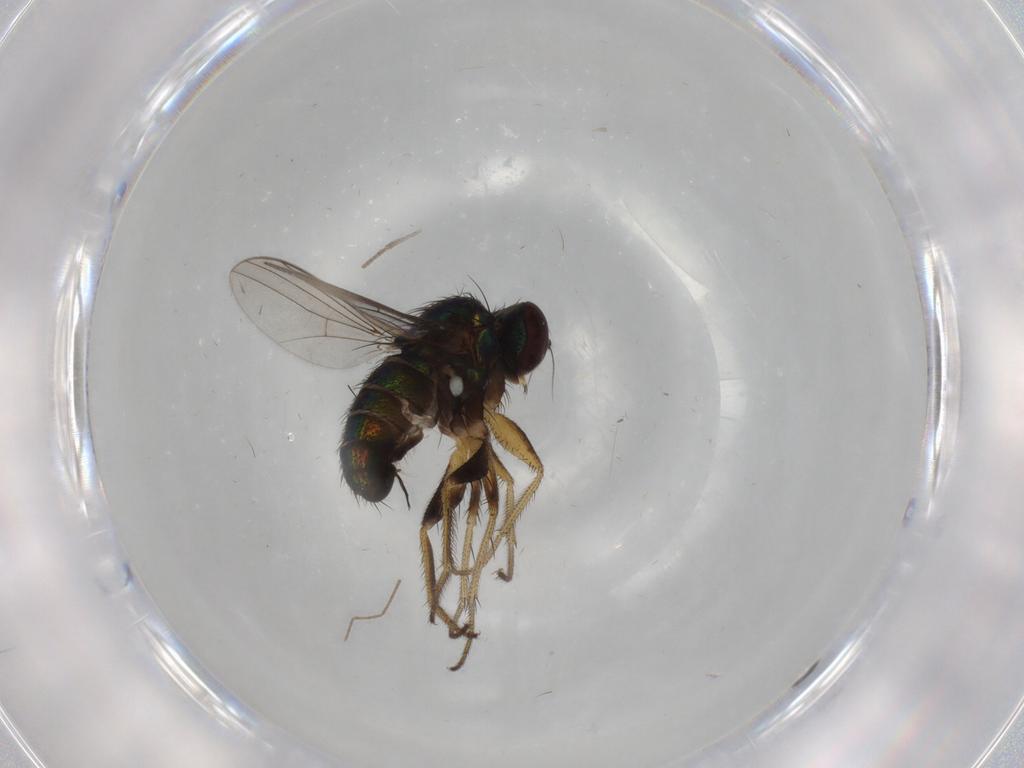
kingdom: Animalia
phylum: Arthropoda
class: Insecta
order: Diptera
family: Dolichopodidae
